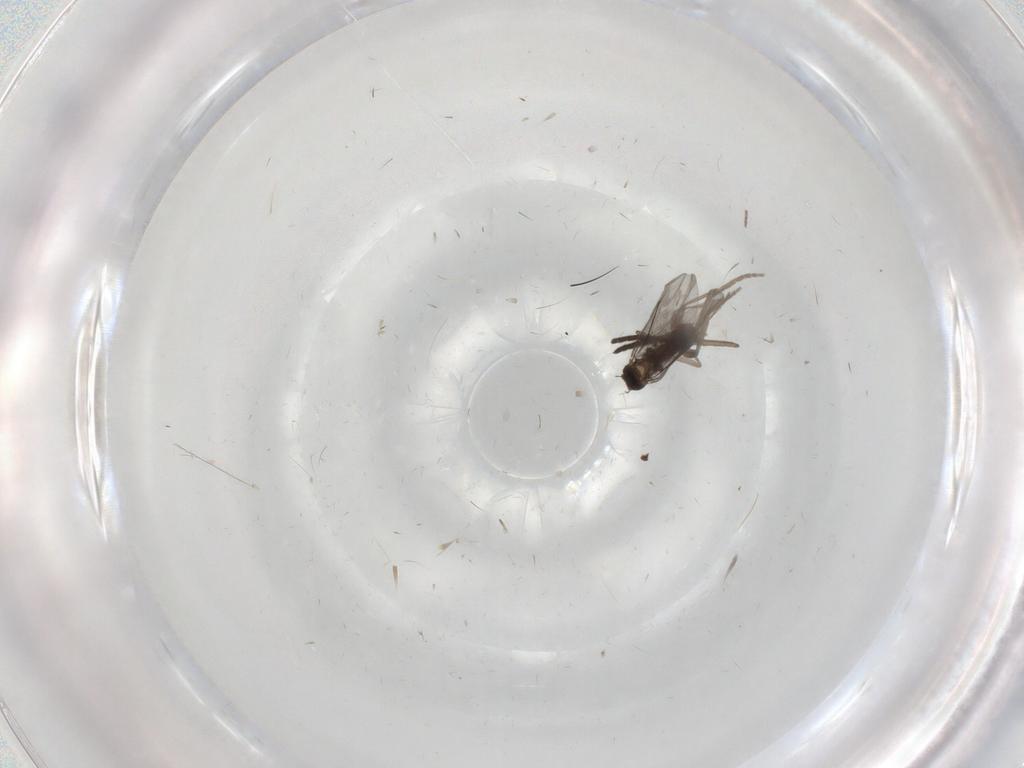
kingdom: Animalia
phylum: Arthropoda
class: Insecta
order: Diptera
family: Phoridae
